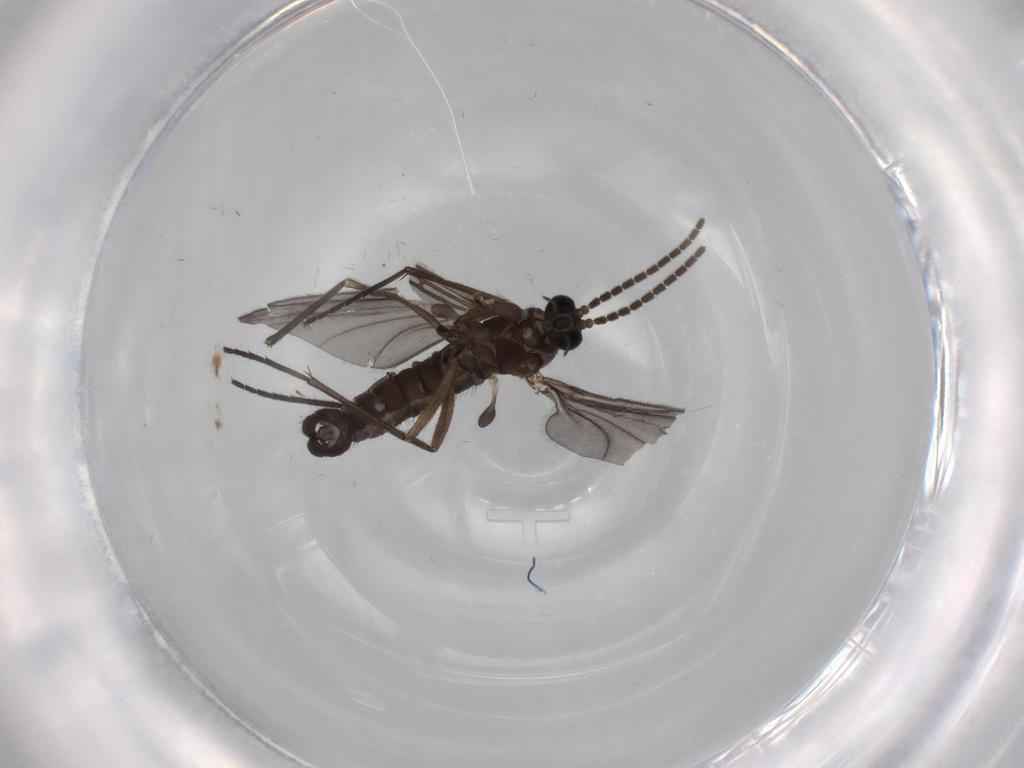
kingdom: Animalia
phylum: Arthropoda
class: Insecta
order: Diptera
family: Sciaridae
